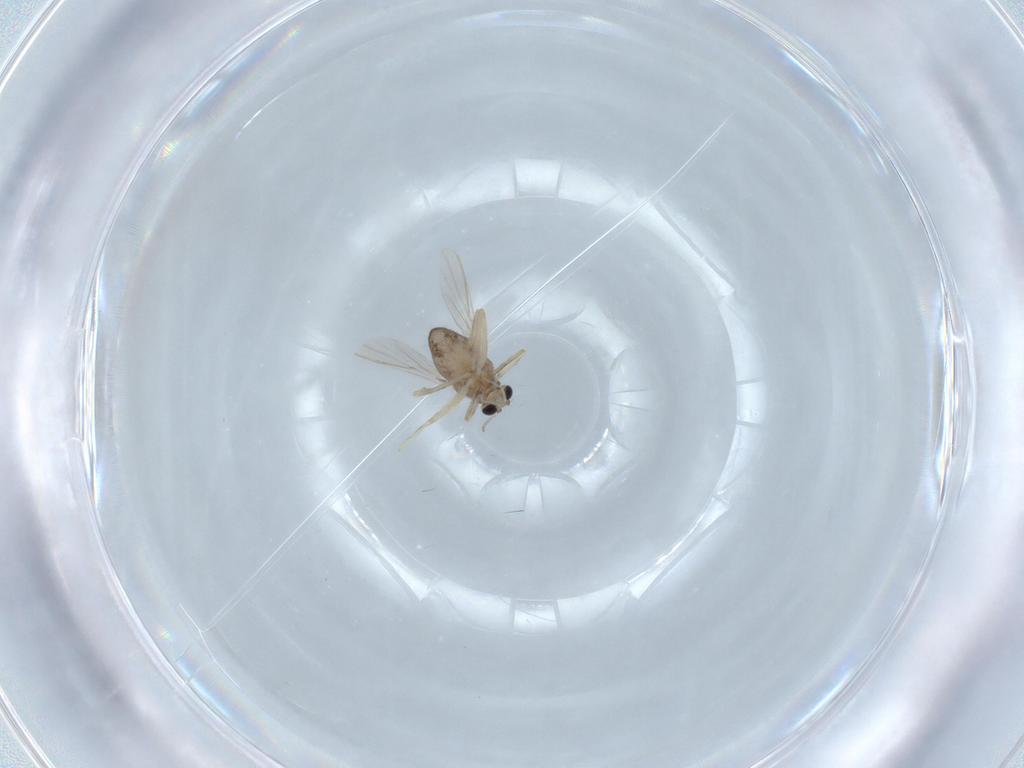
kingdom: Animalia
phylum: Arthropoda
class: Insecta
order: Diptera
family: Chironomidae
